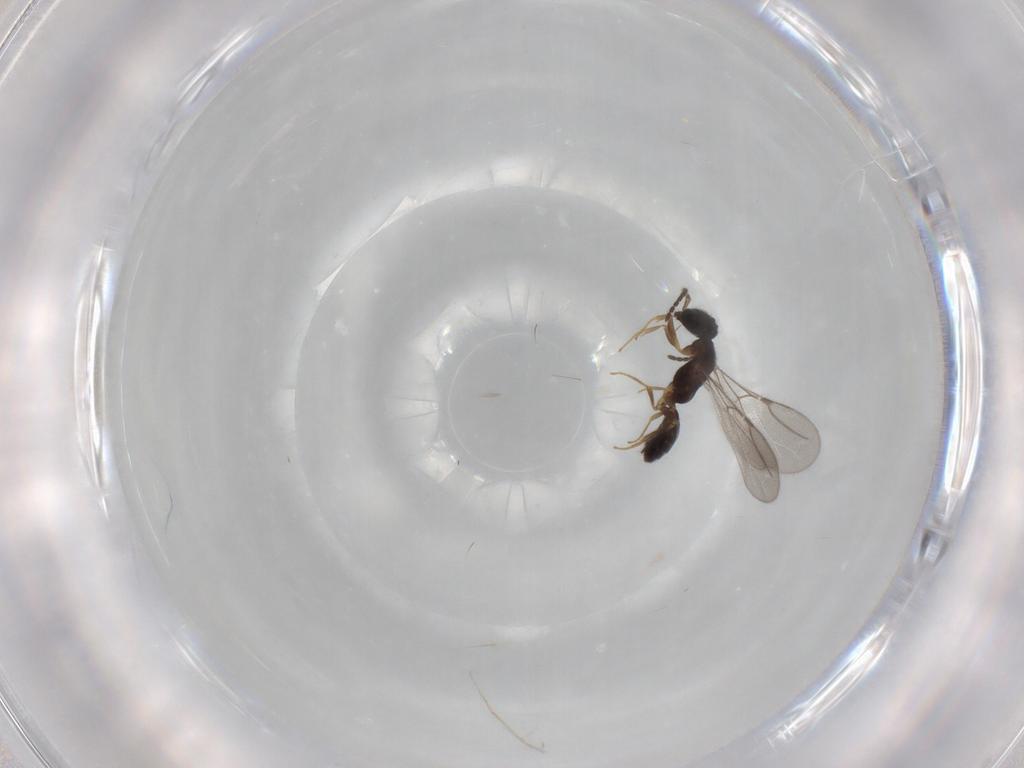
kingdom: Animalia
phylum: Arthropoda
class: Insecta
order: Hymenoptera
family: Bethylidae
